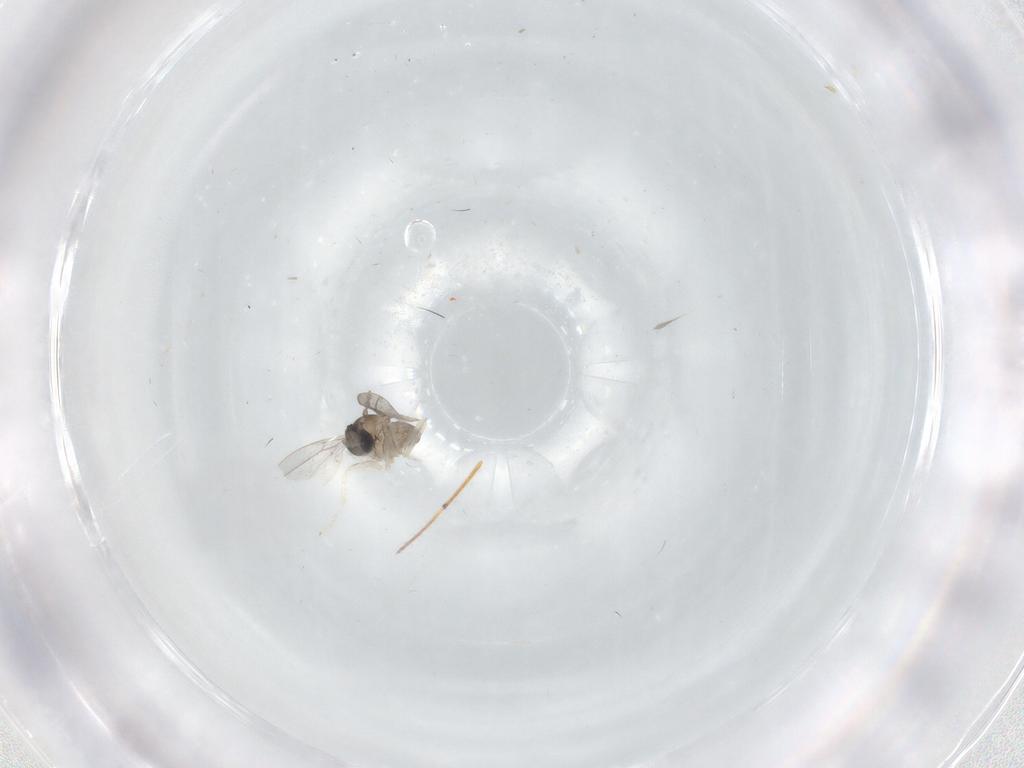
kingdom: Animalia
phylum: Arthropoda
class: Insecta
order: Diptera
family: Cecidomyiidae
